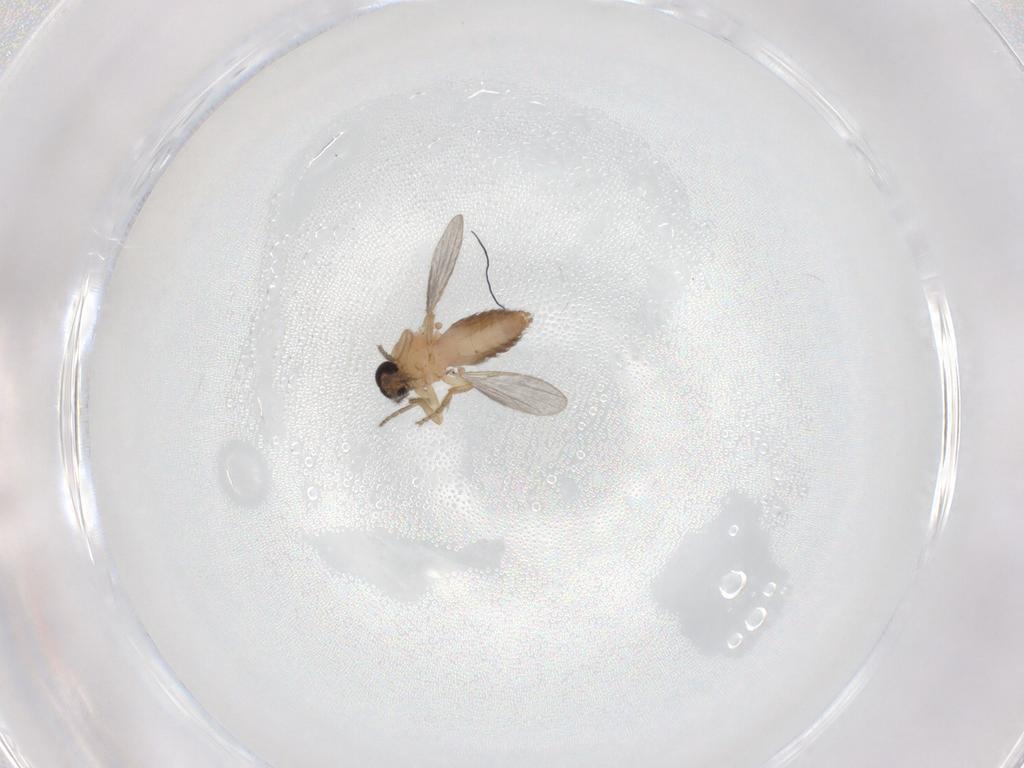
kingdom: Animalia
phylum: Arthropoda
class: Insecta
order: Diptera
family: Ceratopogonidae
